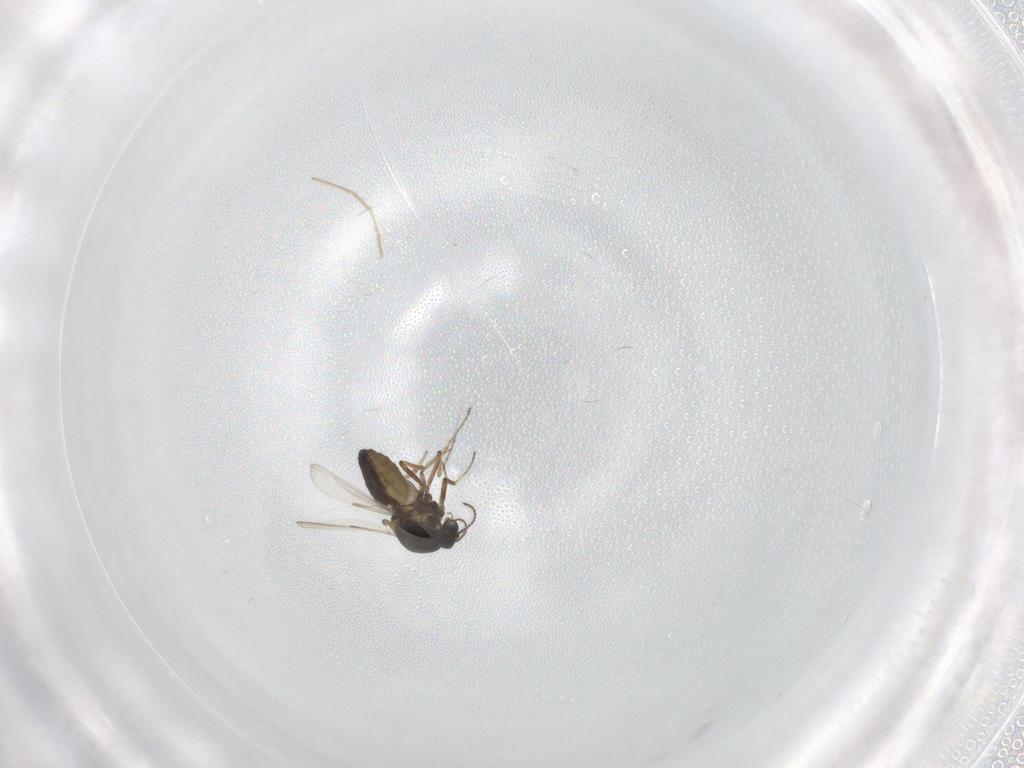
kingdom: Animalia
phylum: Arthropoda
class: Insecta
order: Diptera
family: Ceratopogonidae
